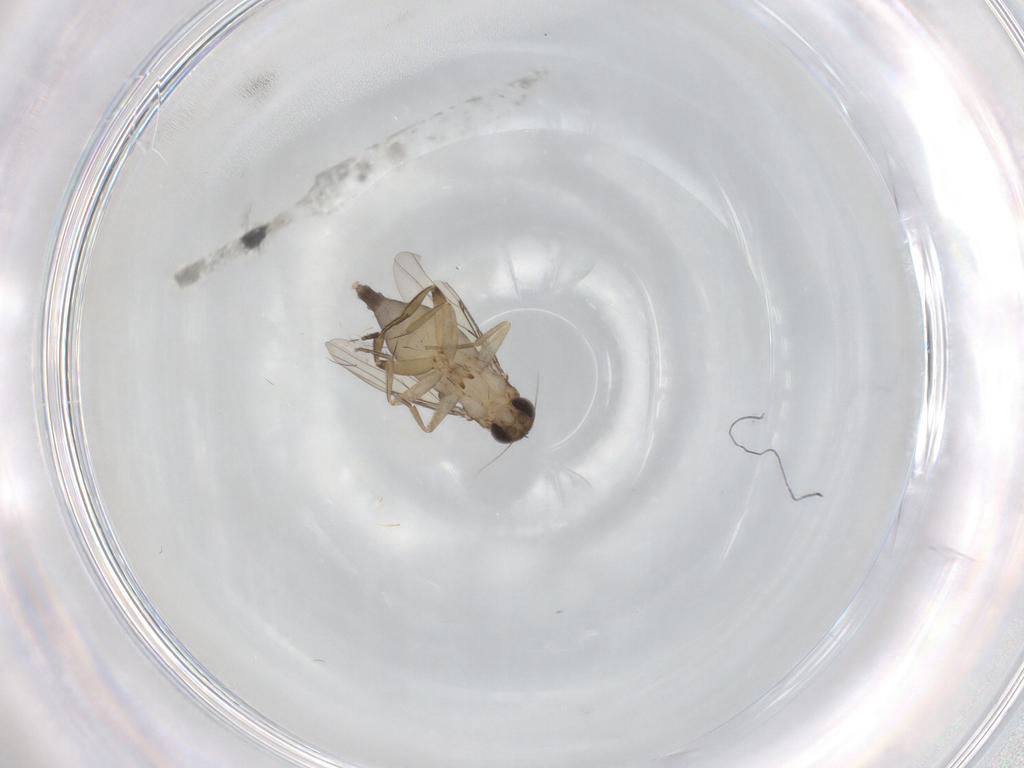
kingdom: Animalia
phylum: Arthropoda
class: Insecta
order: Diptera
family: Phoridae
